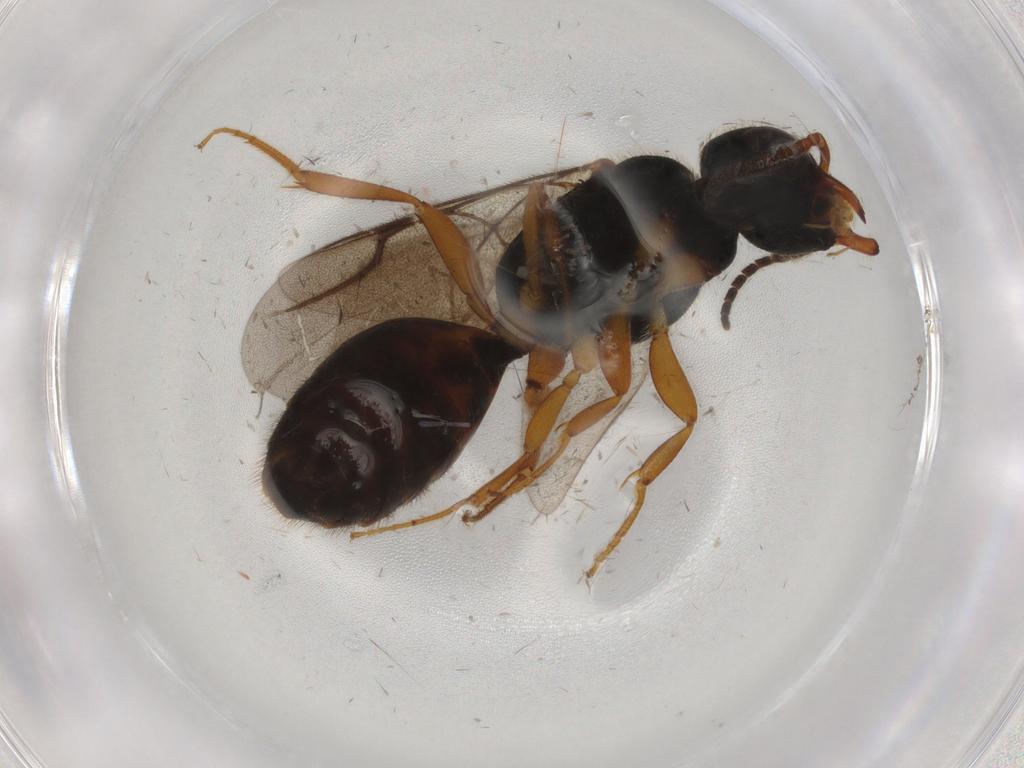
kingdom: Animalia
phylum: Arthropoda
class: Insecta
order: Hymenoptera
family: Bethylidae
